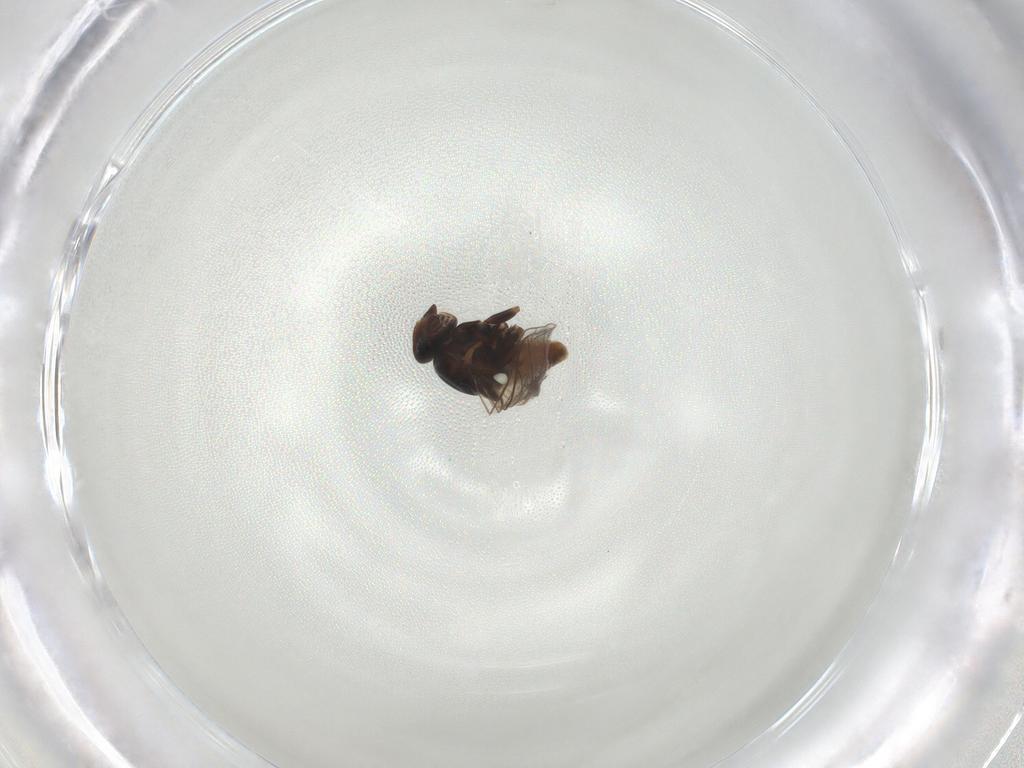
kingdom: Animalia
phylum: Arthropoda
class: Insecta
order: Diptera
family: Chloropidae
